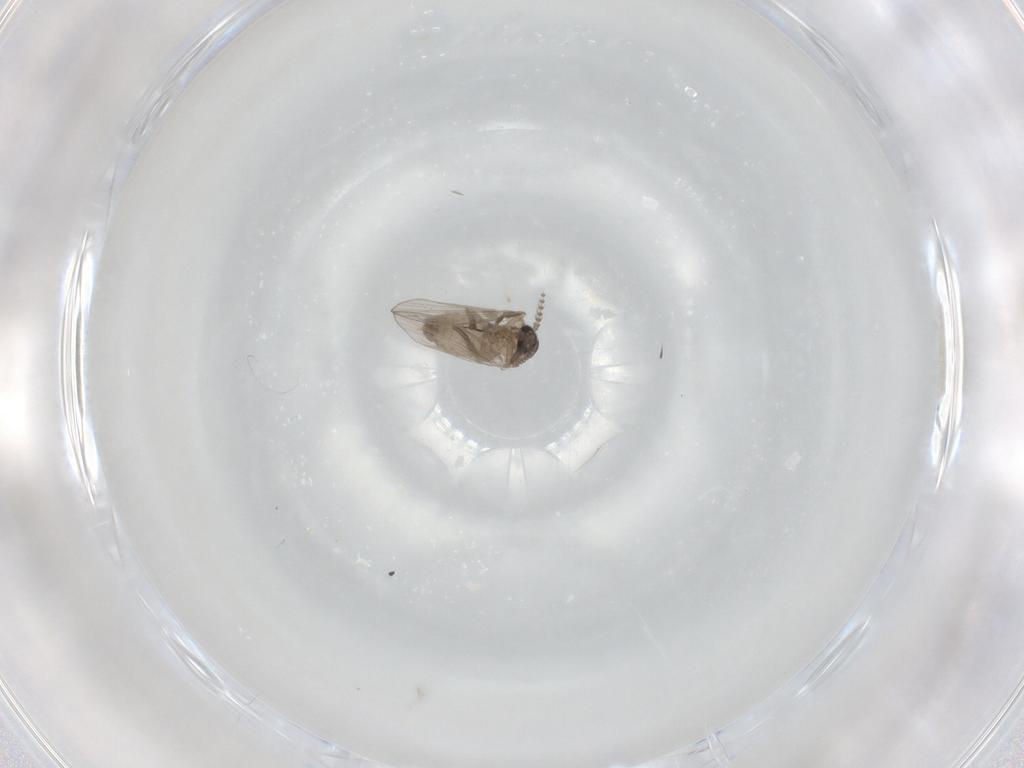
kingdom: Animalia
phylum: Arthropoda
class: Insecta
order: Diptera
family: Psychodidae
